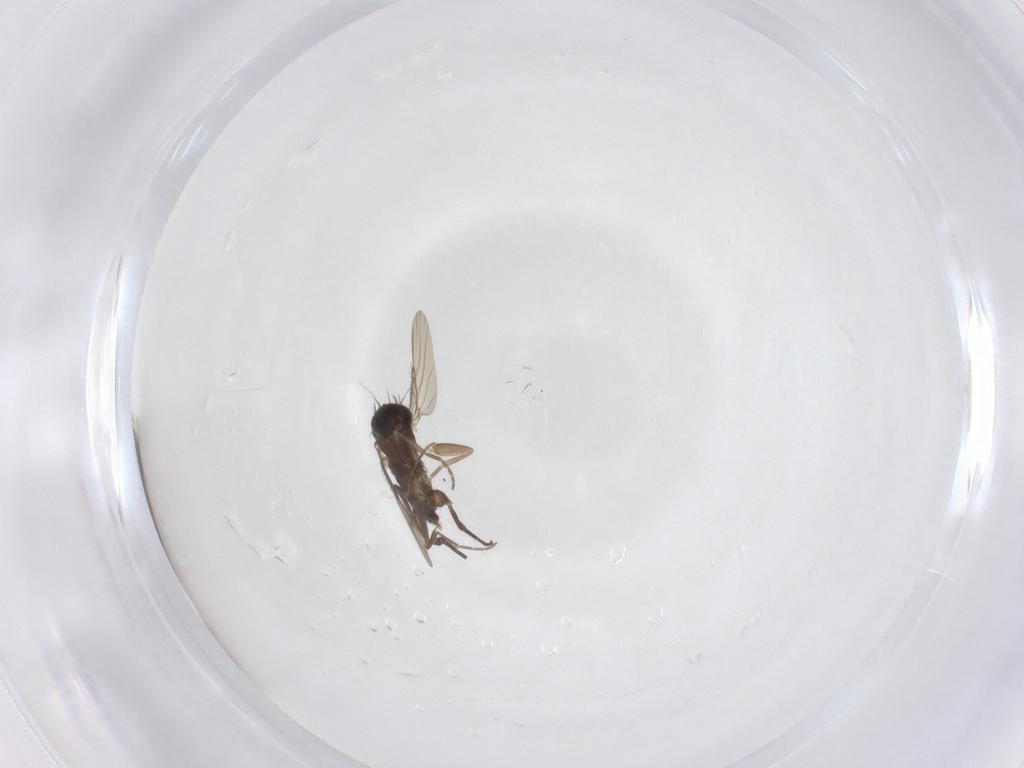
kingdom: Animalia
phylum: Arthropoda
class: Insecta
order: Diptera
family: Phoridae
